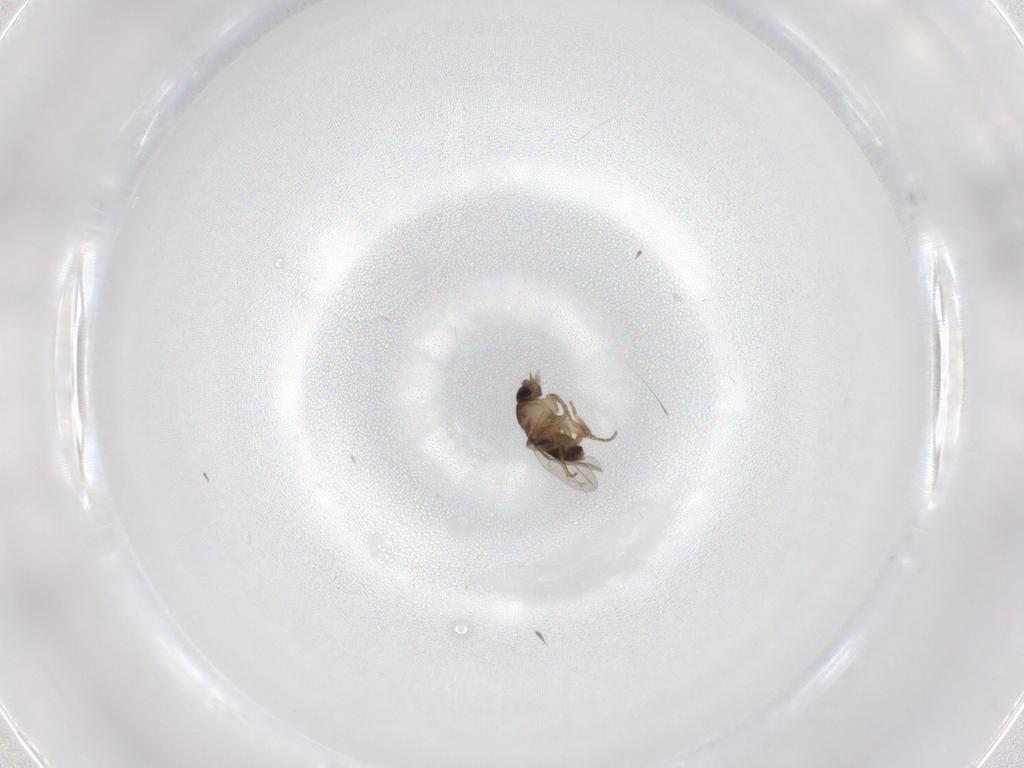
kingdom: Animalia
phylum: Arthropoda
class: Insecta
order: Diptera
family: Phoridae
